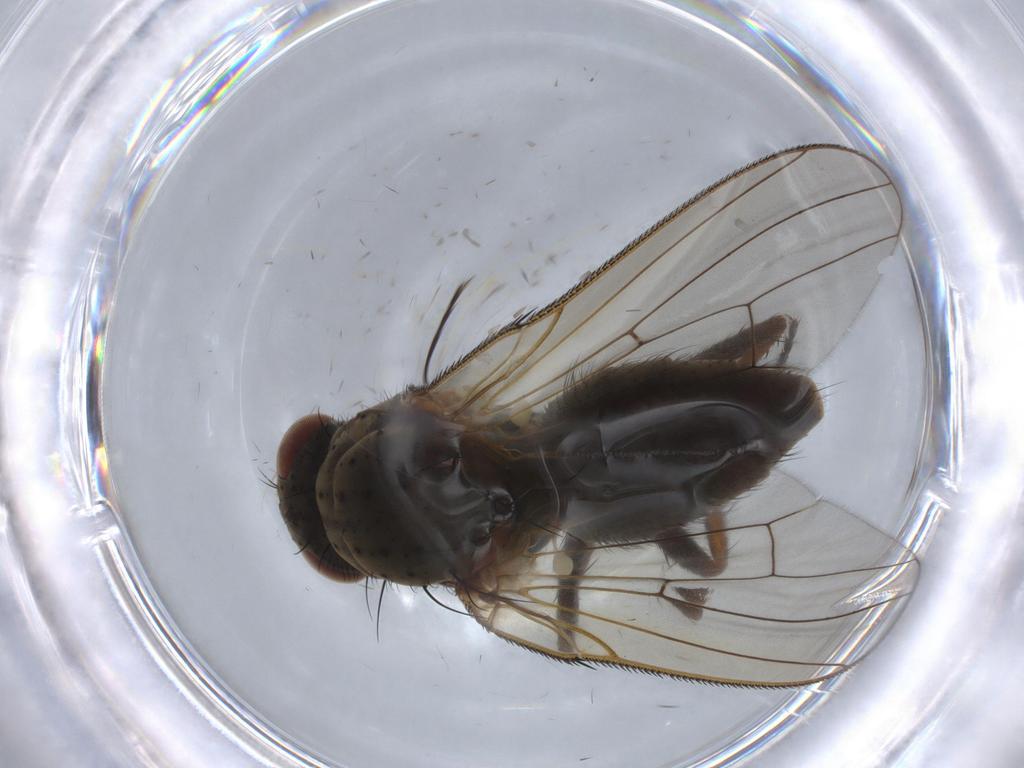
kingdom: Animalia
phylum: Arthropoda
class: Insecta
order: Diptera
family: Anthomyiidae
